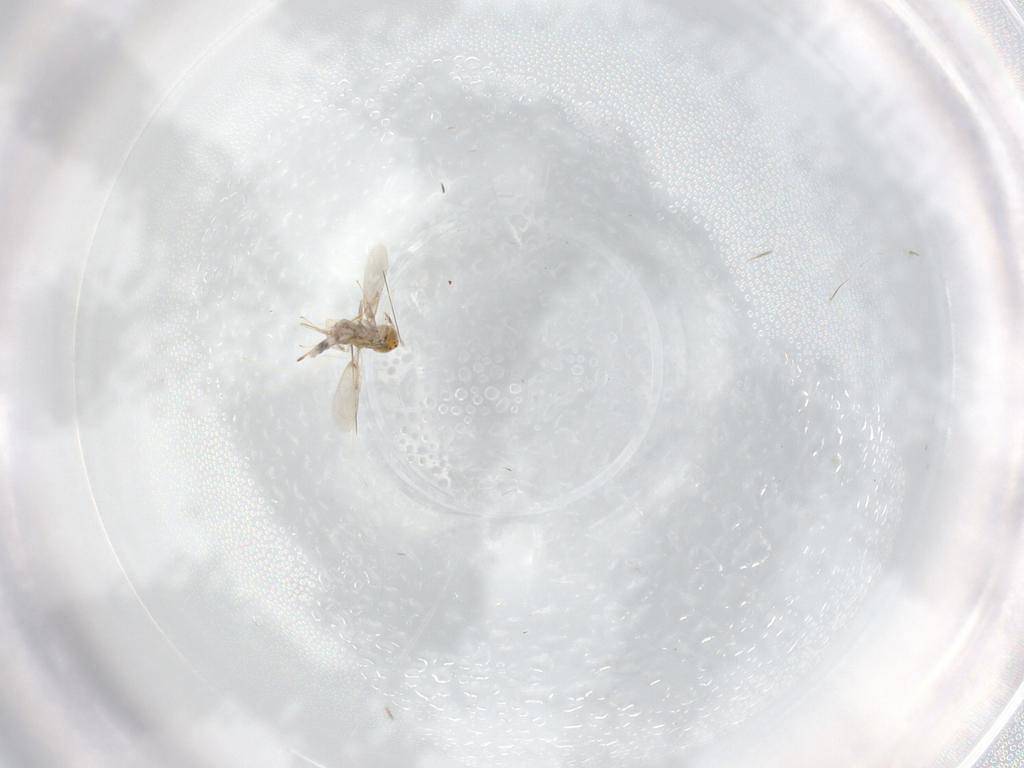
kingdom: Animalia
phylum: Arthropoda
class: Insecta
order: Hymenoptera
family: Aphelinidae
